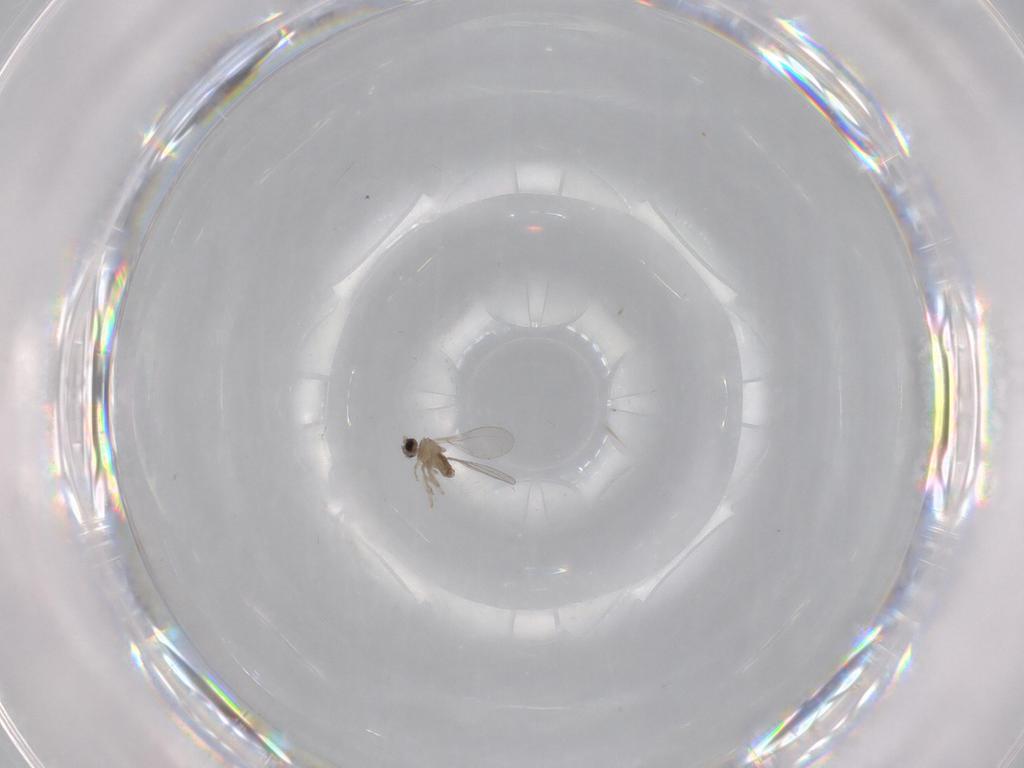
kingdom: Animalia
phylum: Arthropoda
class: Insecta
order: Diptera
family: Cecidomyiidae
